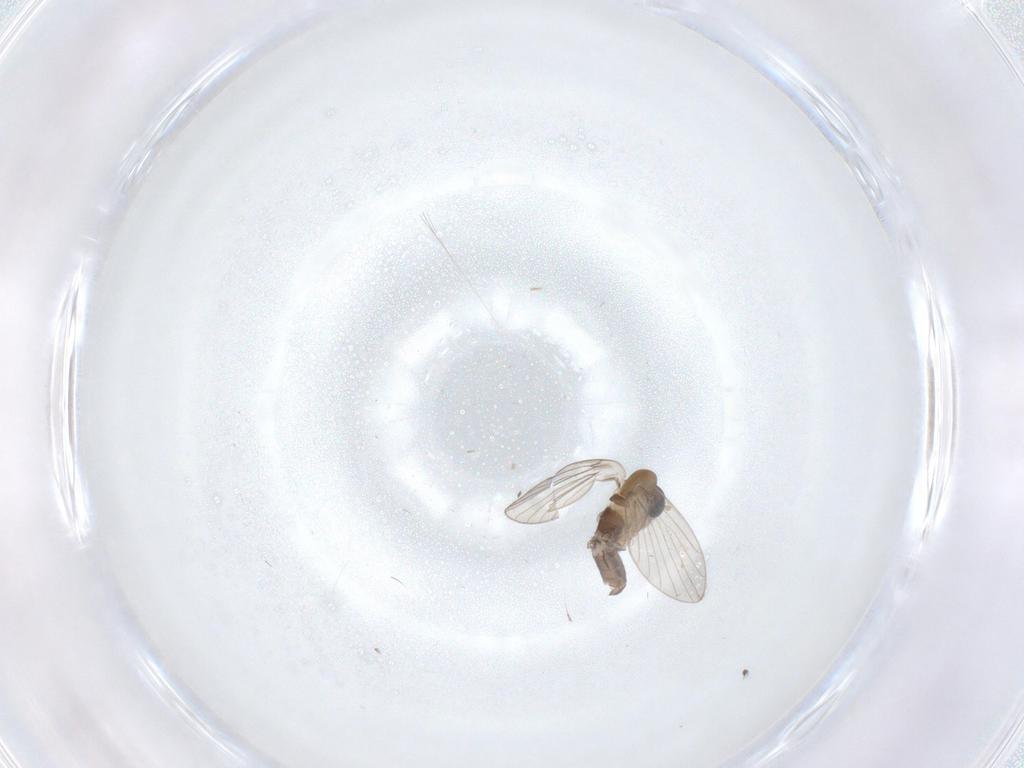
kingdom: Animalia
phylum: Arthropoda
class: Insecta
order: Diptera
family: Psychodidae
